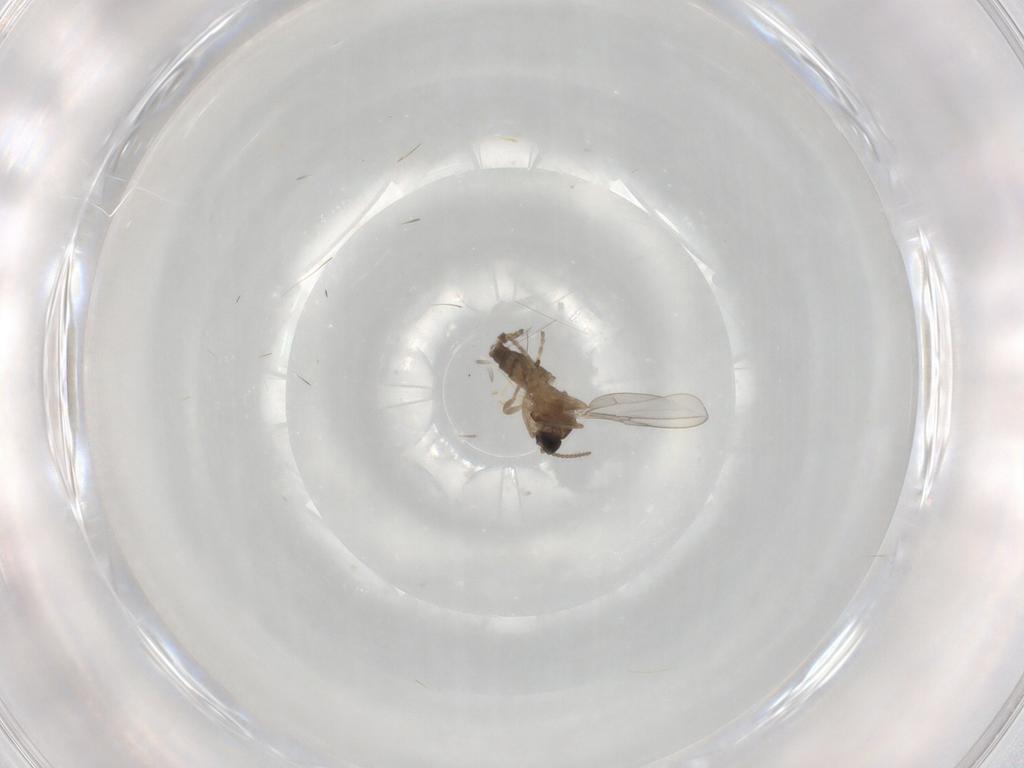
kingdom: Animalia
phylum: Arthropoda
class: Insecta
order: Diptera
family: Cecidomyiidae
